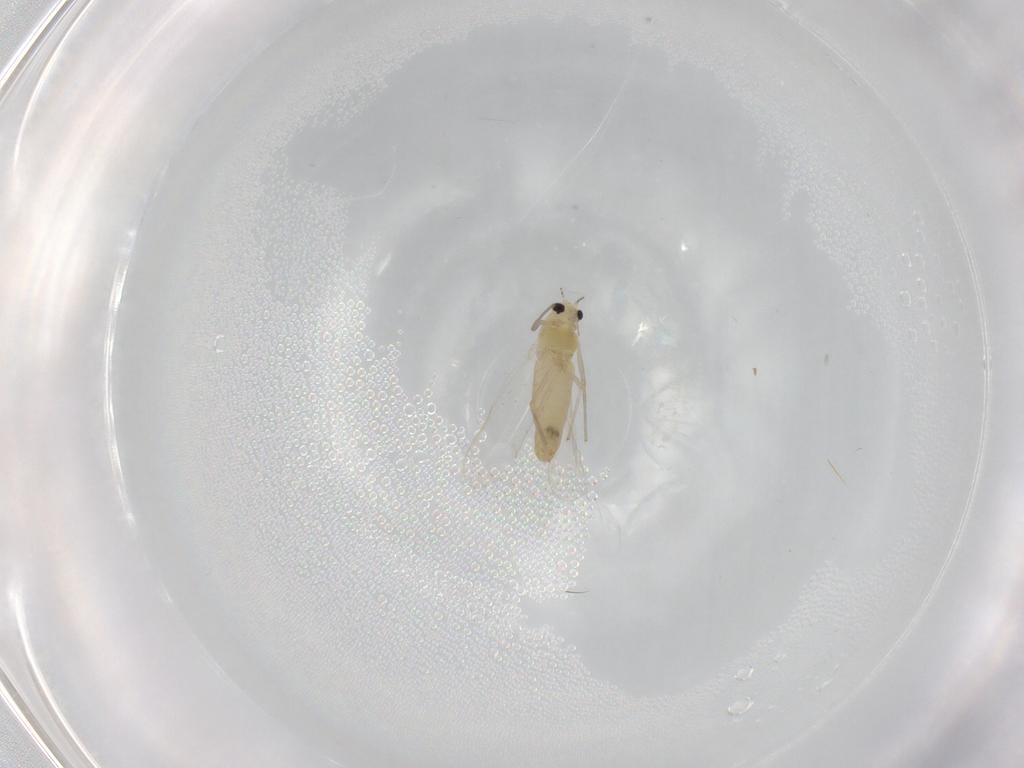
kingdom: Animalia
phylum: Arthropoda
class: Insecta
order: Diptera
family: Chironomidae
